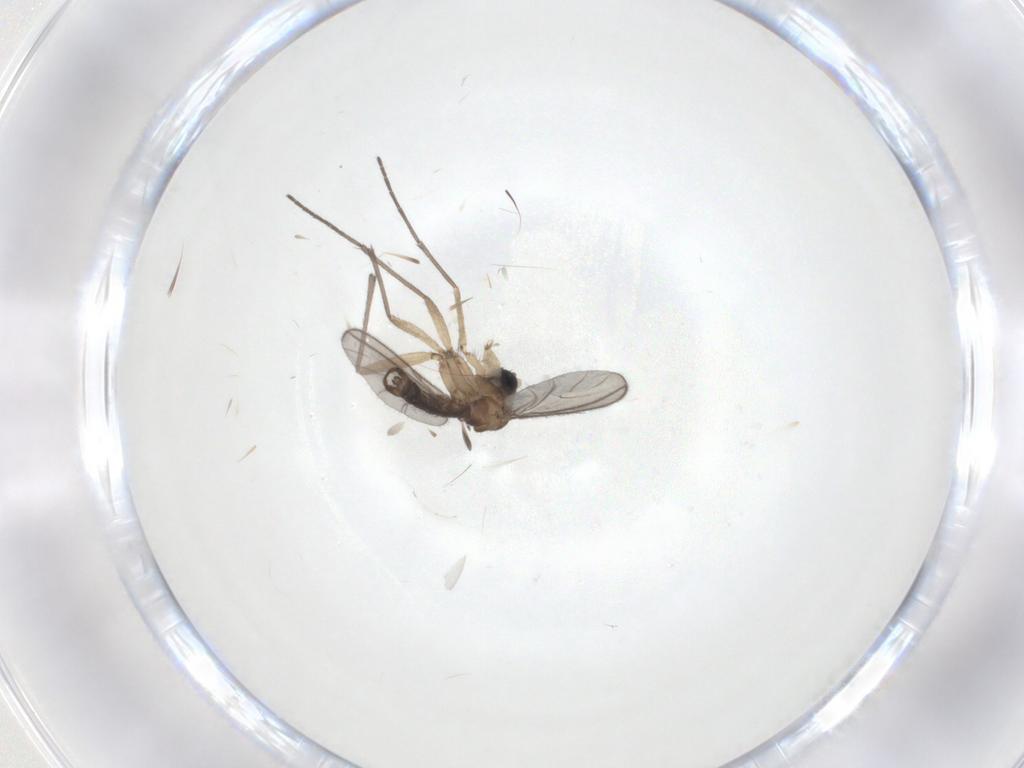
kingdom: Animalia
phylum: Arthropoda
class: Insecta
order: Diptera
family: Sciaridae
